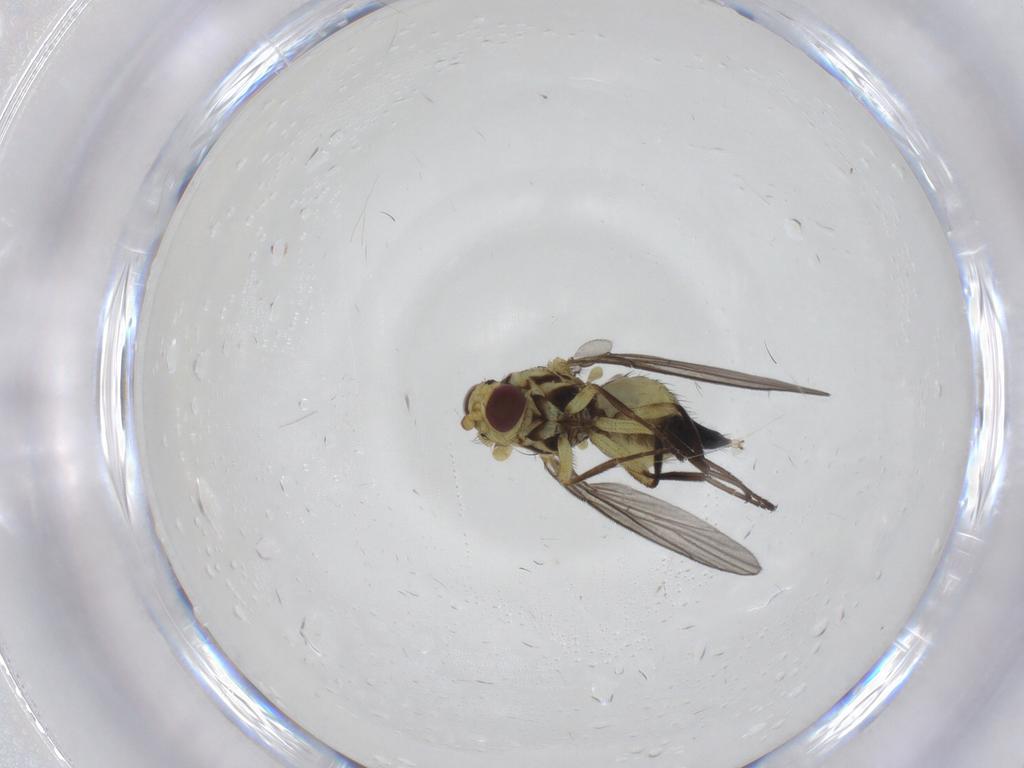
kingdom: Animalia
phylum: Arthropoda
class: Insecta
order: Diptera
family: Agromyzidae
